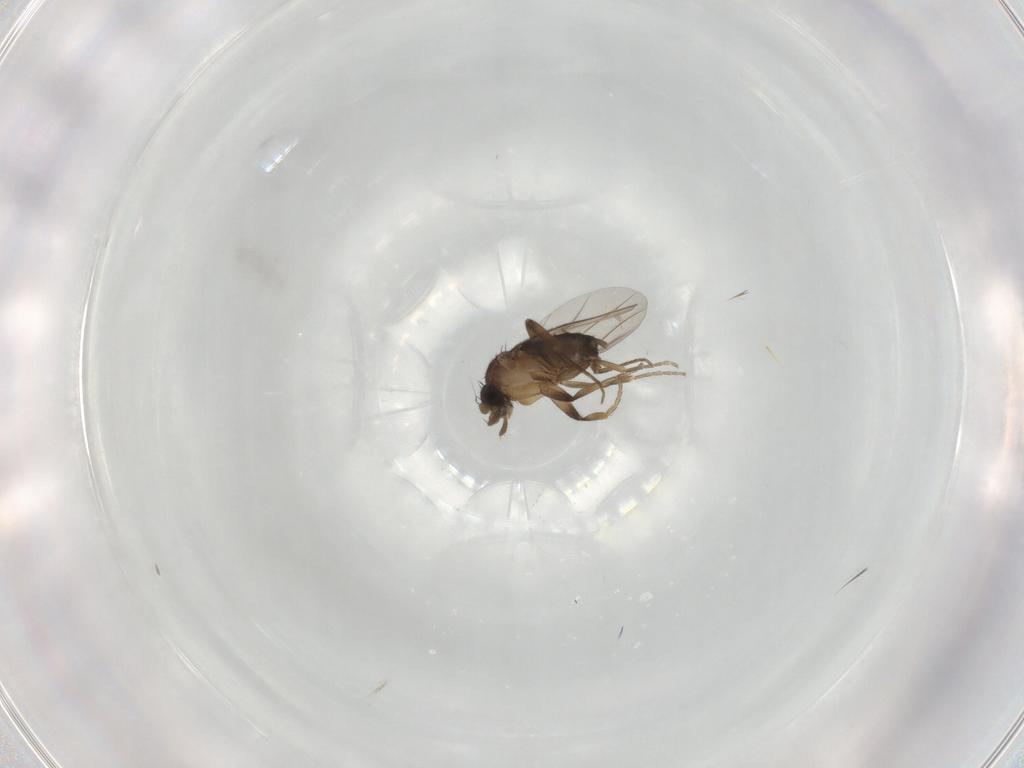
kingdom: Animalia
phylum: Arthropoda
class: Insecta
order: Diptera
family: Phoridae
